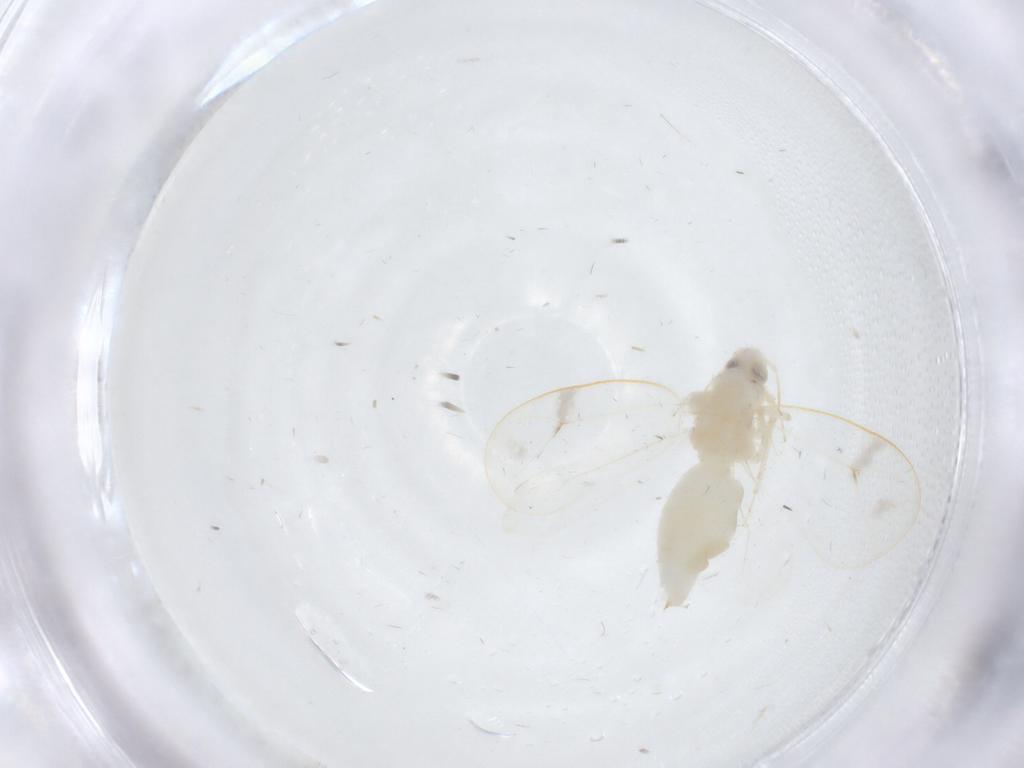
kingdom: Animalia
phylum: Arthropoda
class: Insecta
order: Hemiptera
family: Aleyrodidae
